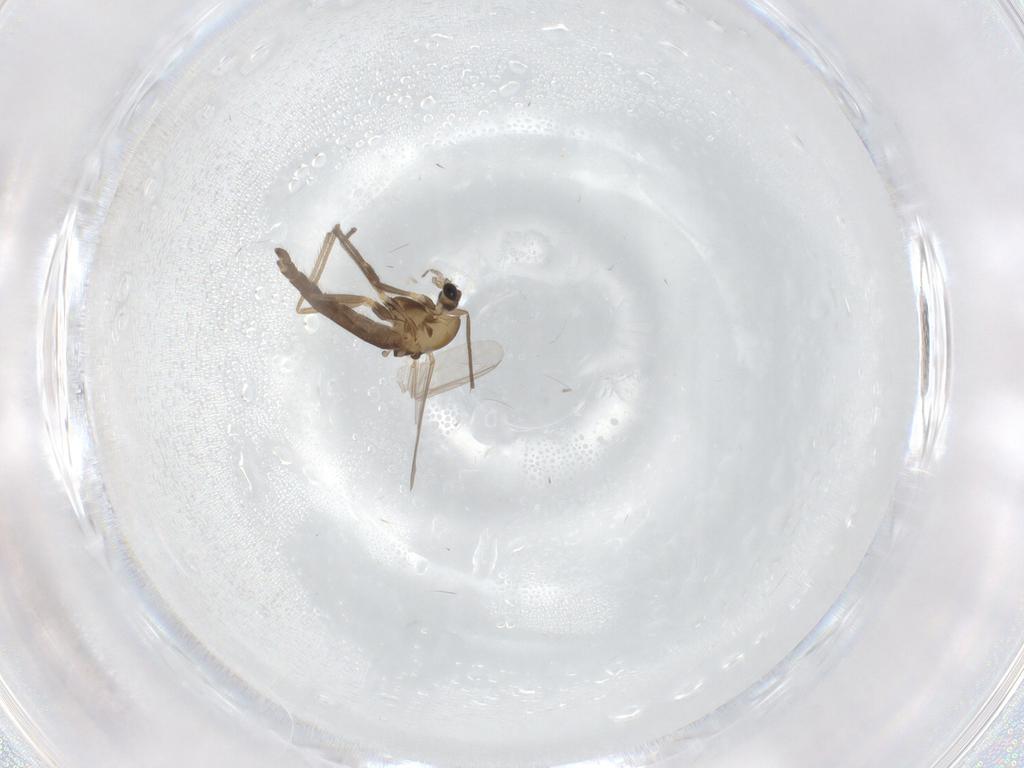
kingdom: Animalia
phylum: Arthropoda
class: Insecta
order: Diptera
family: Chironomidae
